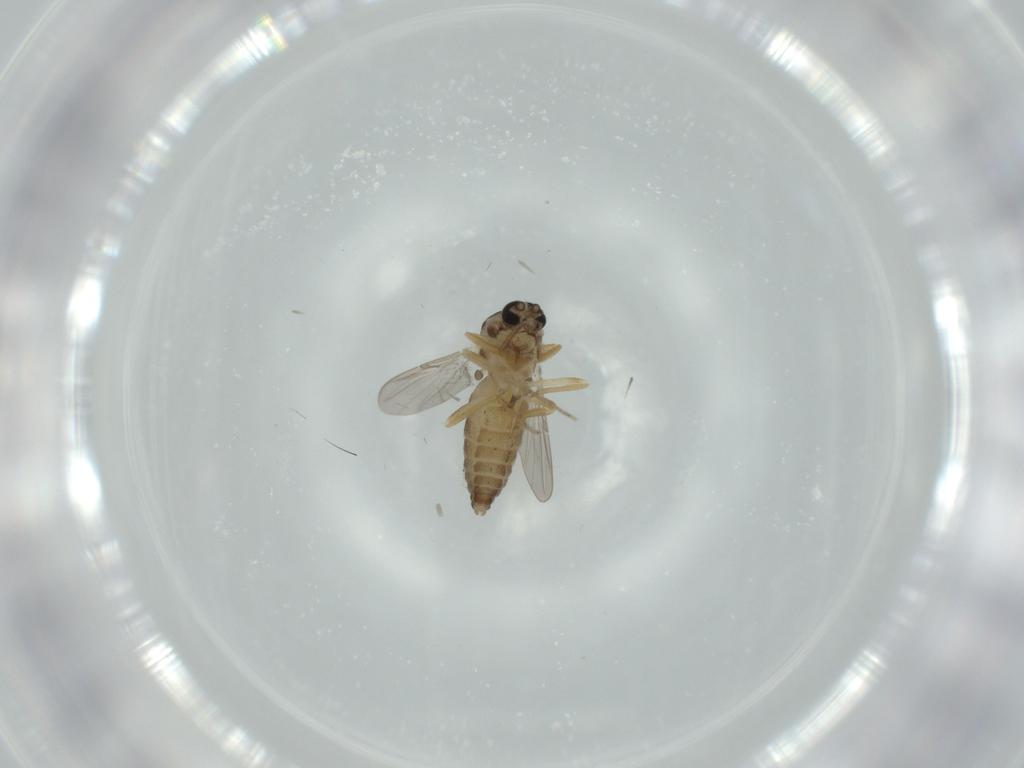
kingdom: Animalia
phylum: Arthropoda
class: Insecta
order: Diptera
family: Ceratopogonidae
